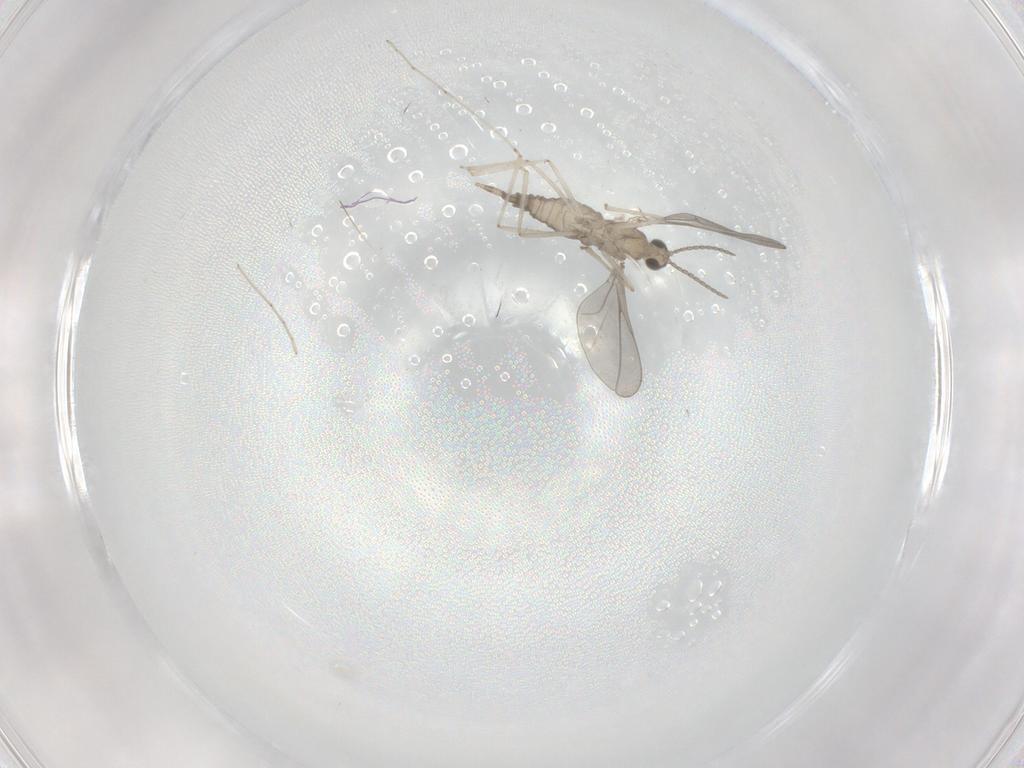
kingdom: Animalia
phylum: Arthropoda
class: Insecta
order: Diptera
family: Cecidomyiidae
